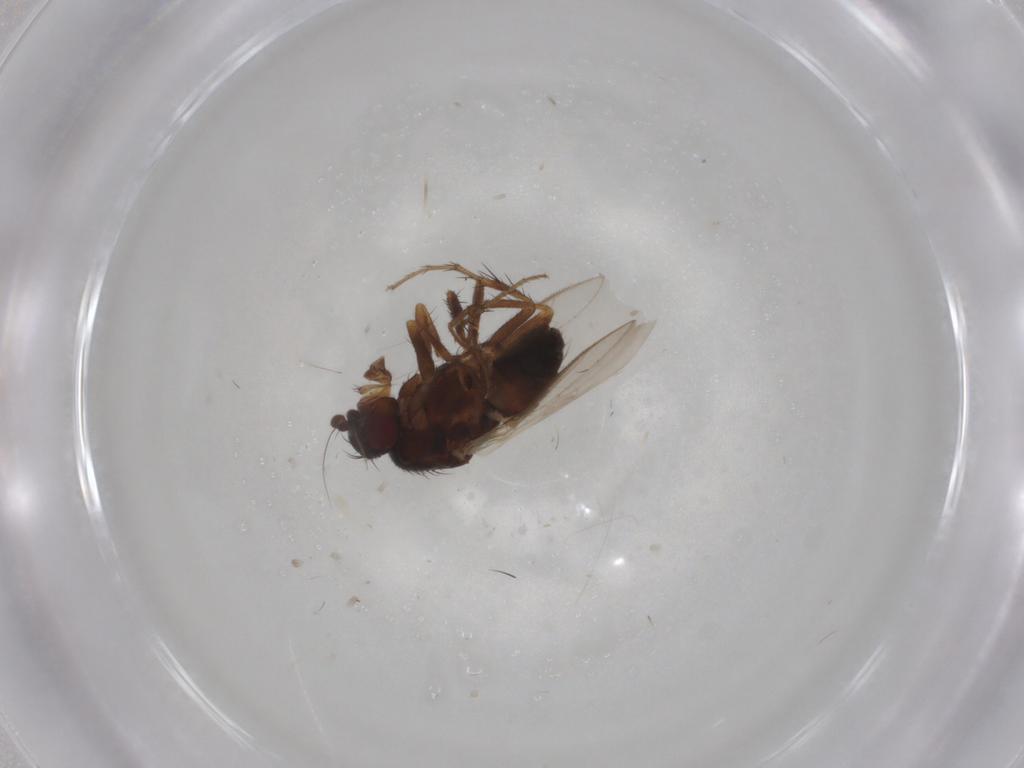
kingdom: Animalia
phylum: Arthropoda
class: Insecta
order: Diptera
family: Sphaeroceridae
